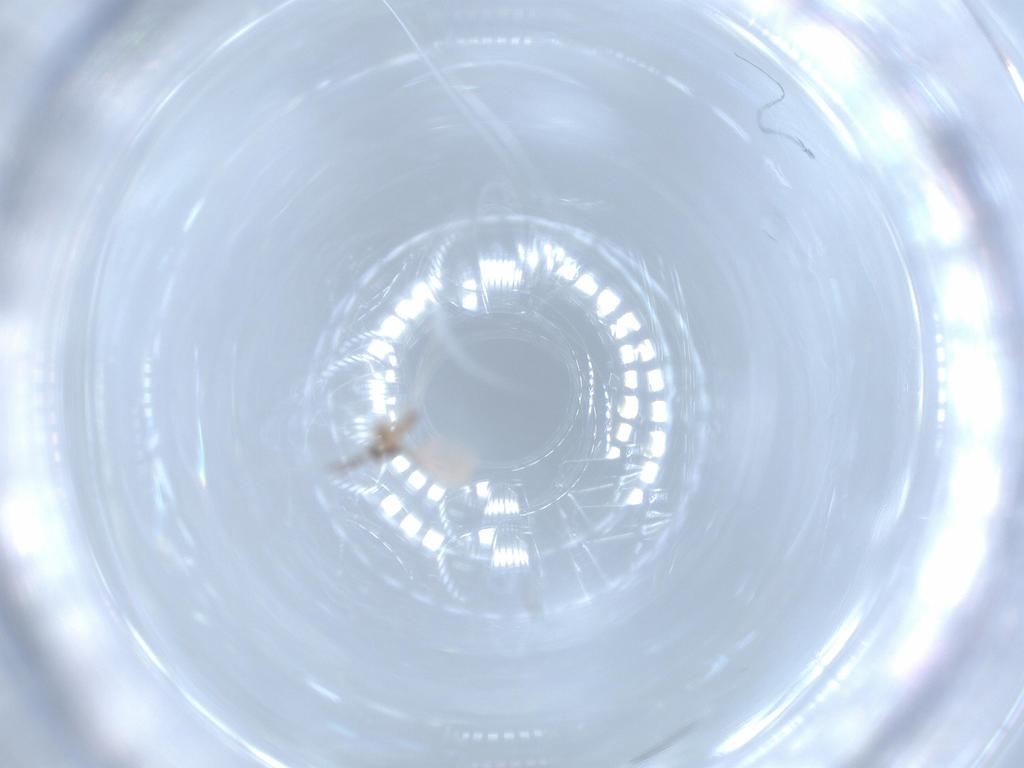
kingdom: Animalia
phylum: Arthropoda
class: Insecta
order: Diptera
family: Cecidomyiidae
